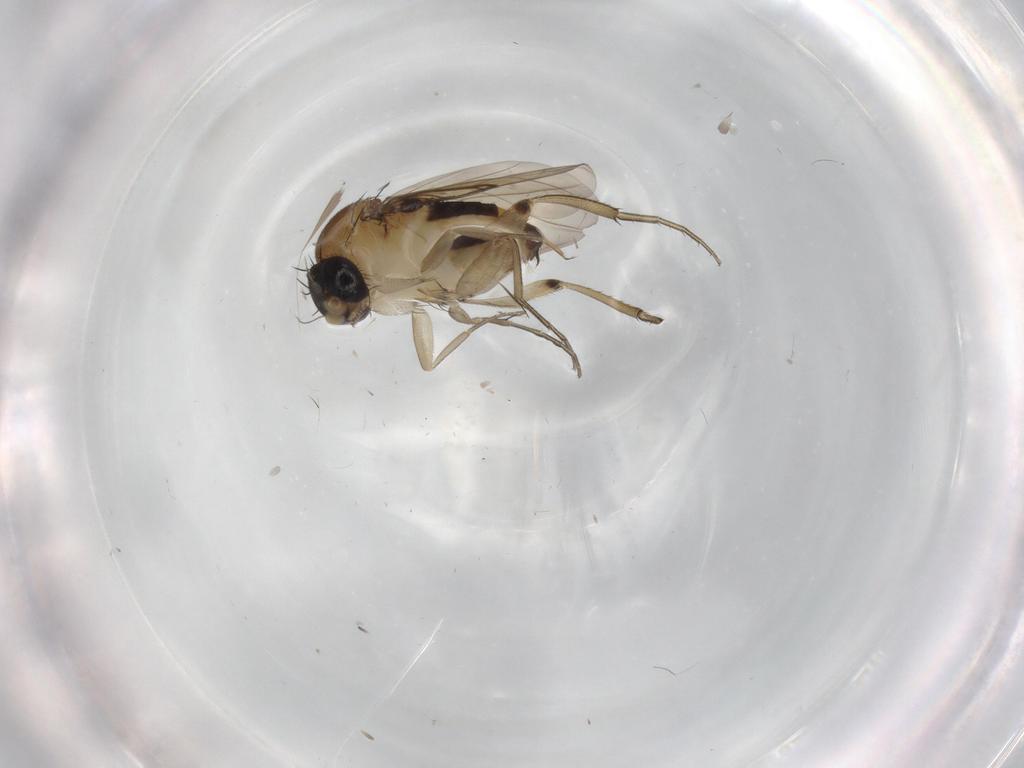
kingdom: Animalia
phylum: Arthropoda
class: Insecta
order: Diptera
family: Phoridae
